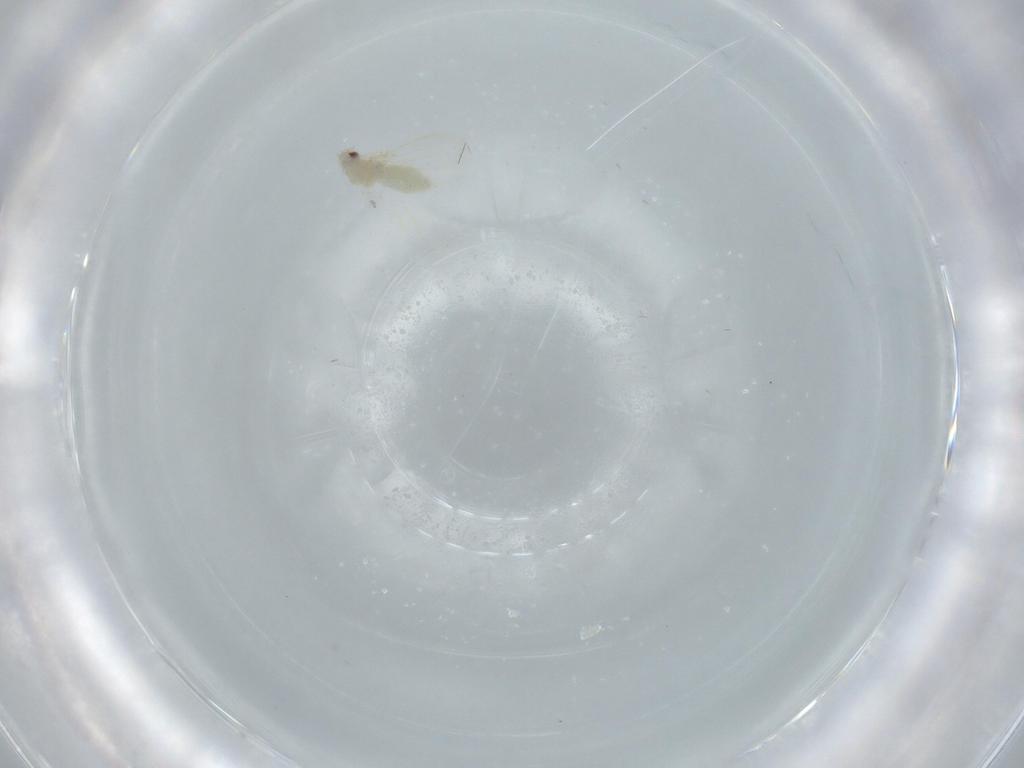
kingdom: Animalia
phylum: Arthropoda
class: Insecta
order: Hemiptera
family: Aleyrodidae
